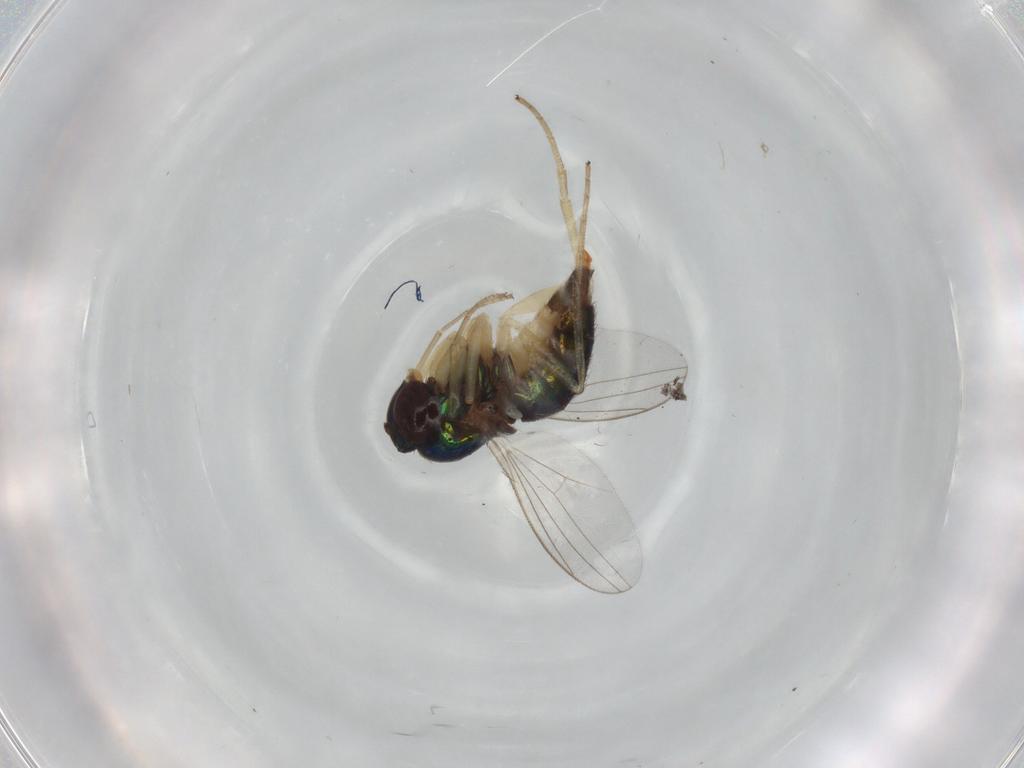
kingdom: Animalia
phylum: Arthropoda
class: Insecta
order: Diptera
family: Dolichopodidae
